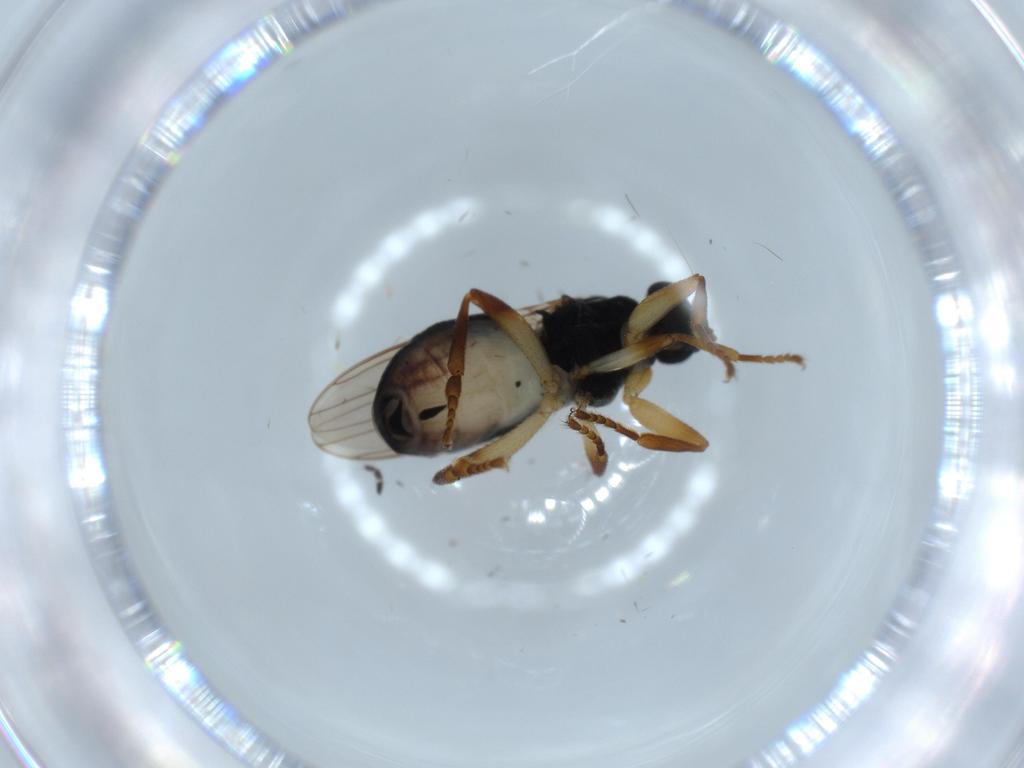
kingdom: Animalia
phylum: Arthropoda
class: Insecta
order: Diptera
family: Sphaeroceridae
